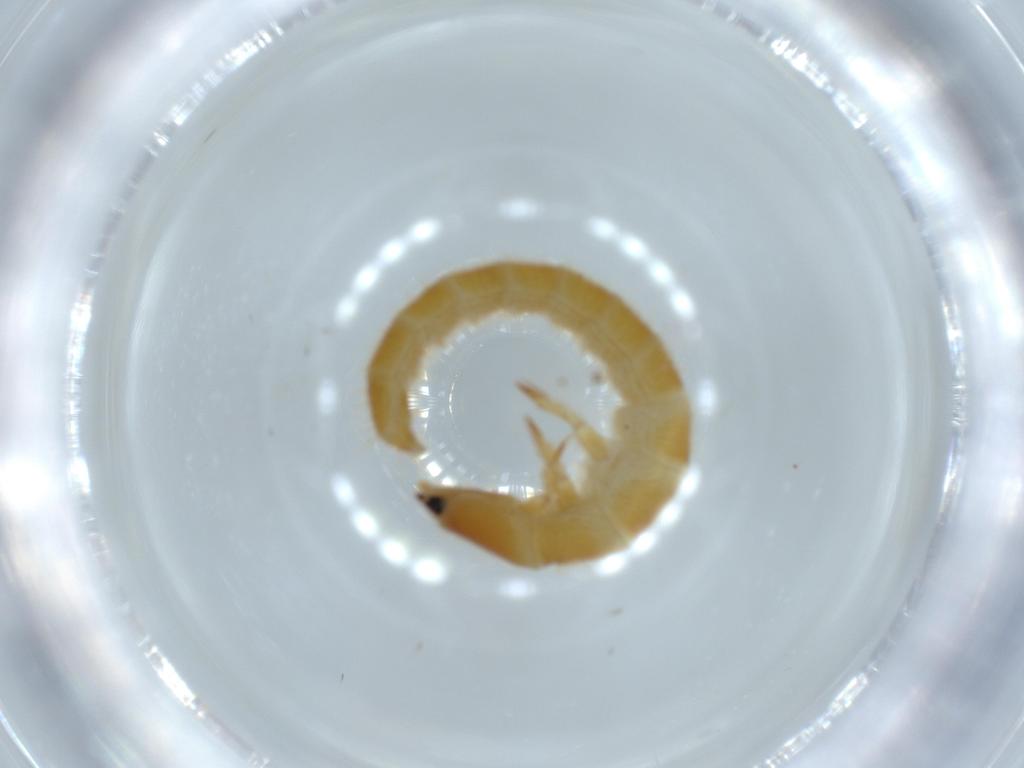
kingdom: Animalia
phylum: Arthropoda
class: Insecta
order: Coleoptera
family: Phengodidae
